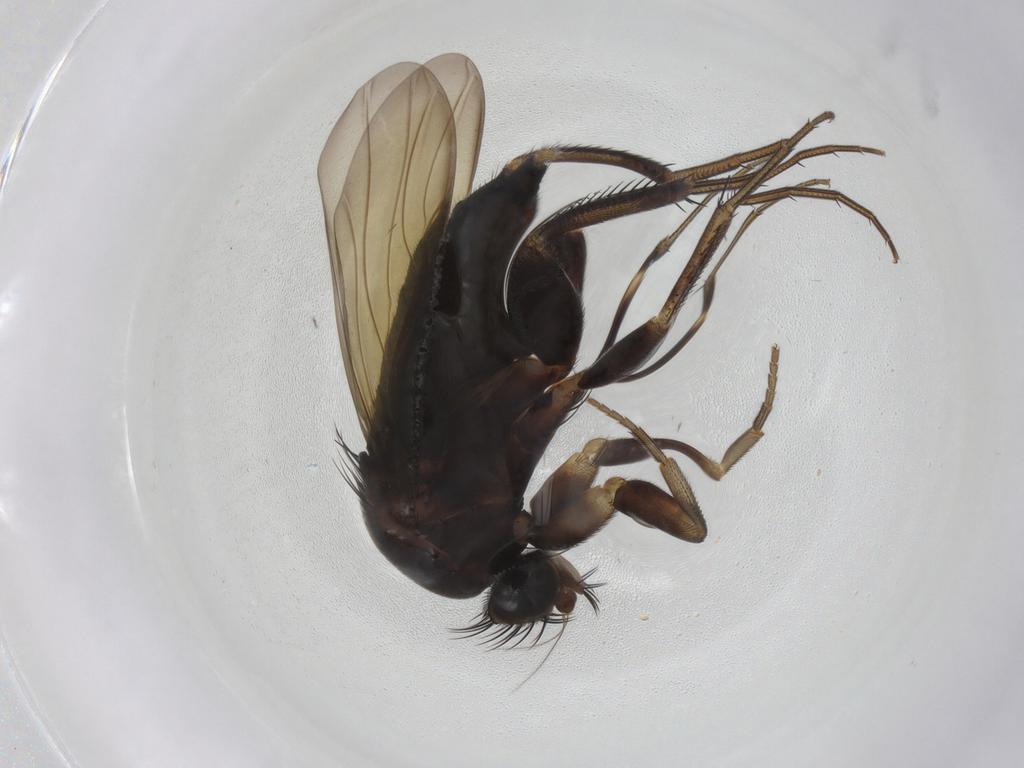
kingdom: Animalia
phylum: Arthropoda
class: Insecta
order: Diptera
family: Phoridae
